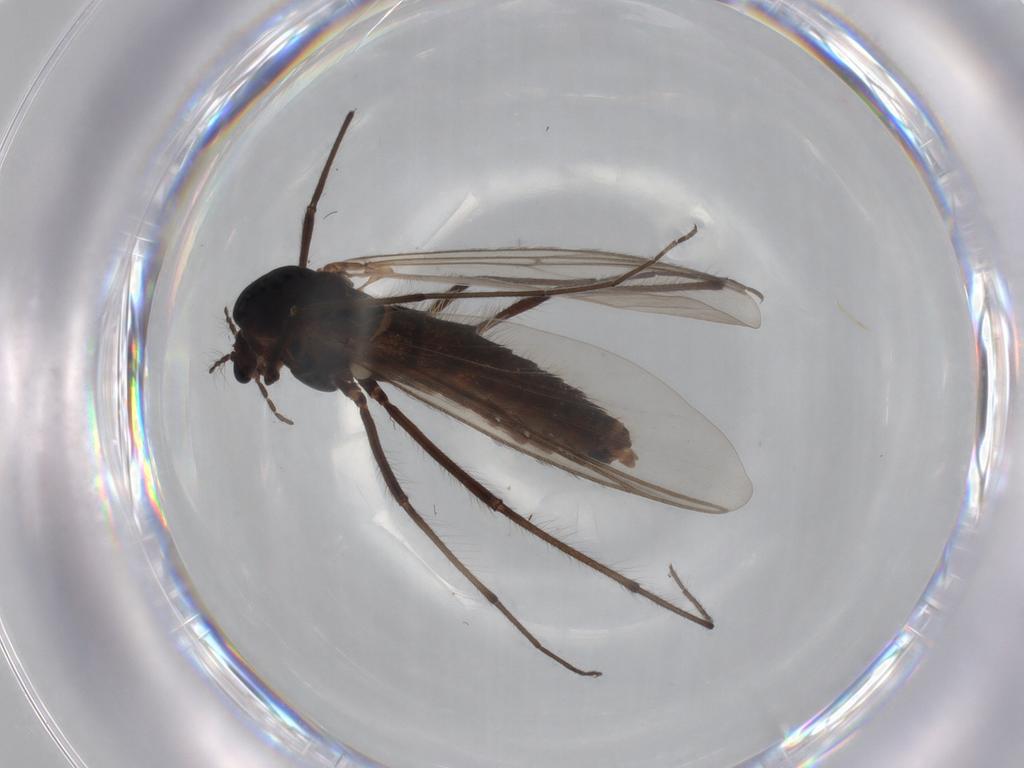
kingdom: Animalia
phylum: Arthropoda
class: Insecta
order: Diptera
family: Chironomidae
